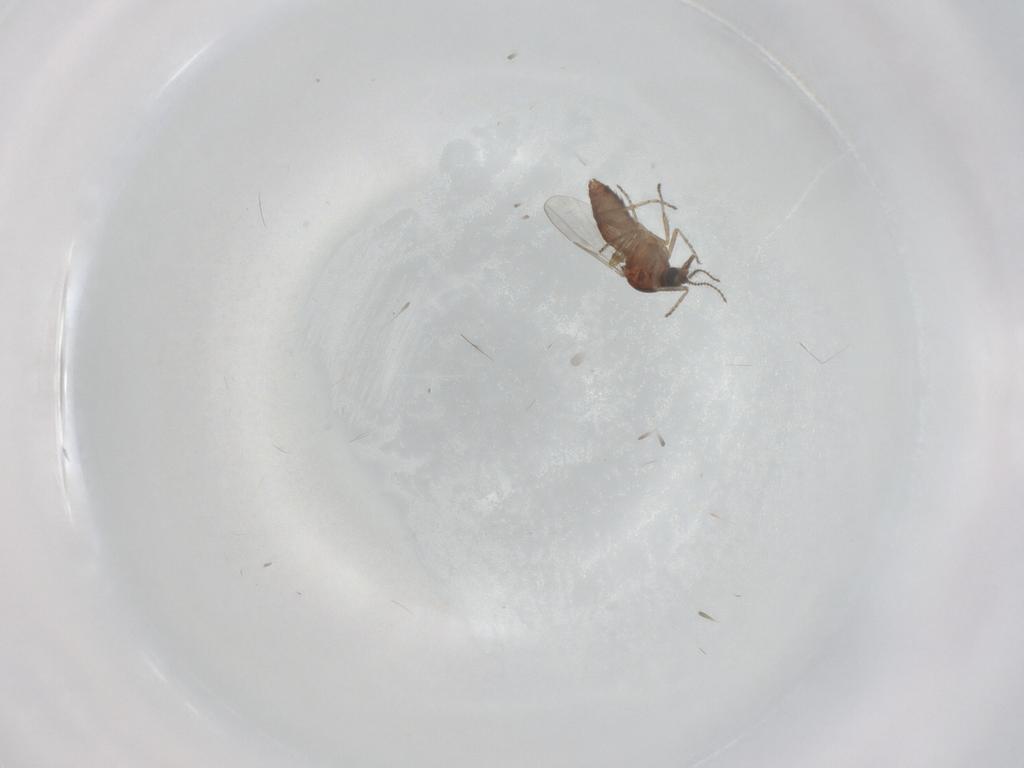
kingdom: Animalia
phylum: Arthropoda
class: Insecta
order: Diptera
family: Ceratopogonidae
